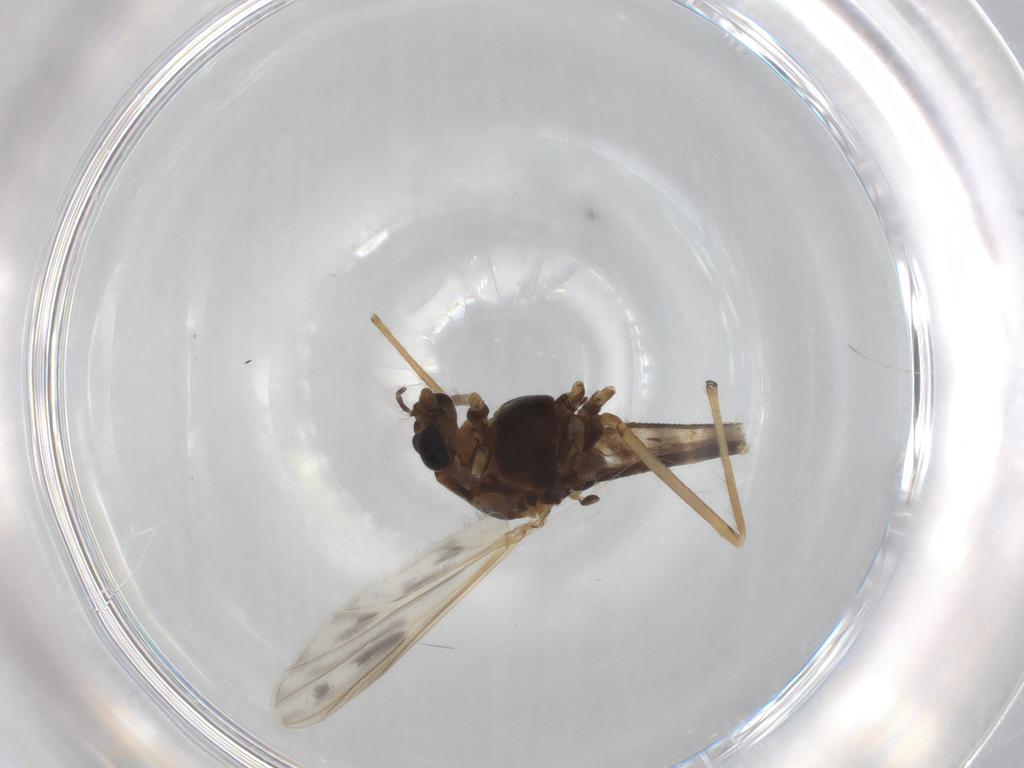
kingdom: Animalia
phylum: Arthropoda
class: Insecta
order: Diptera
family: Chironomidae
